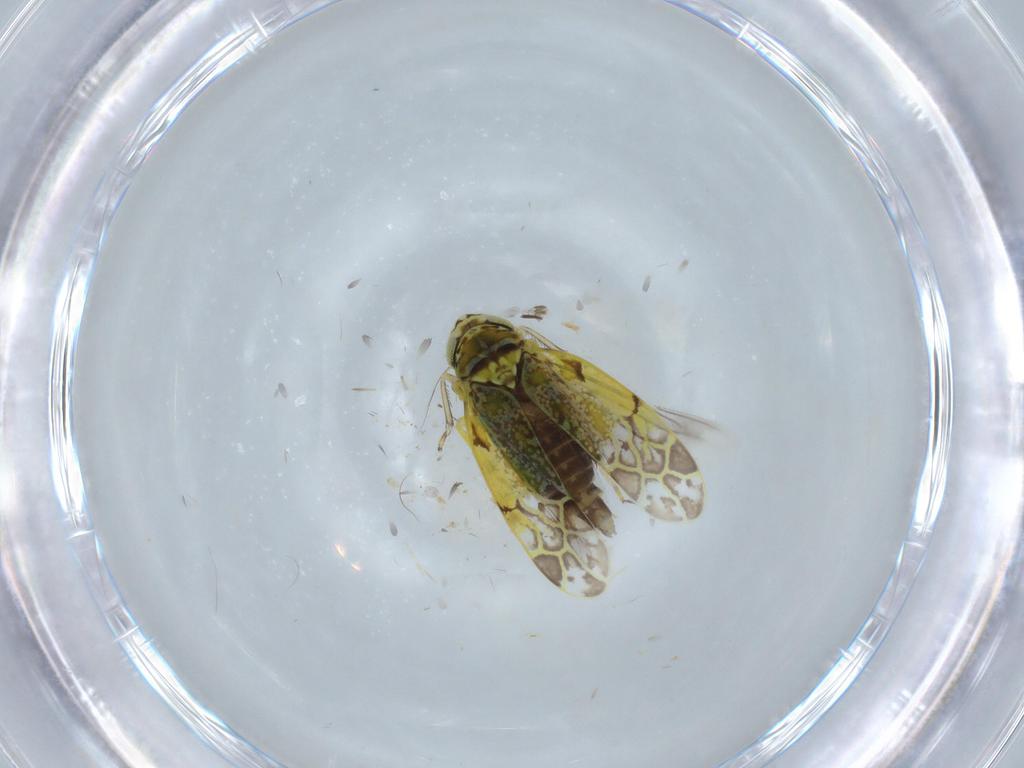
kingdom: Animalia
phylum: Arthropoda
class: Insecta
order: Hemiptera
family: Cicadellidae
